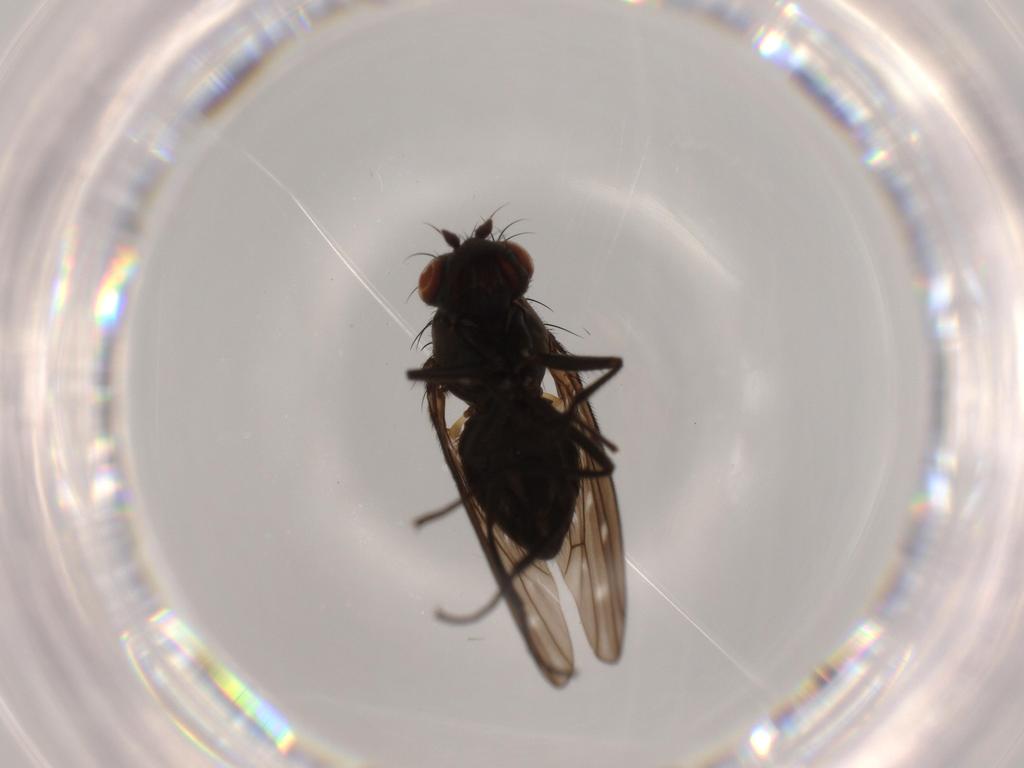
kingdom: Animalia
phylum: Arthropoda
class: Insecta
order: Diptera
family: Ephydridae
